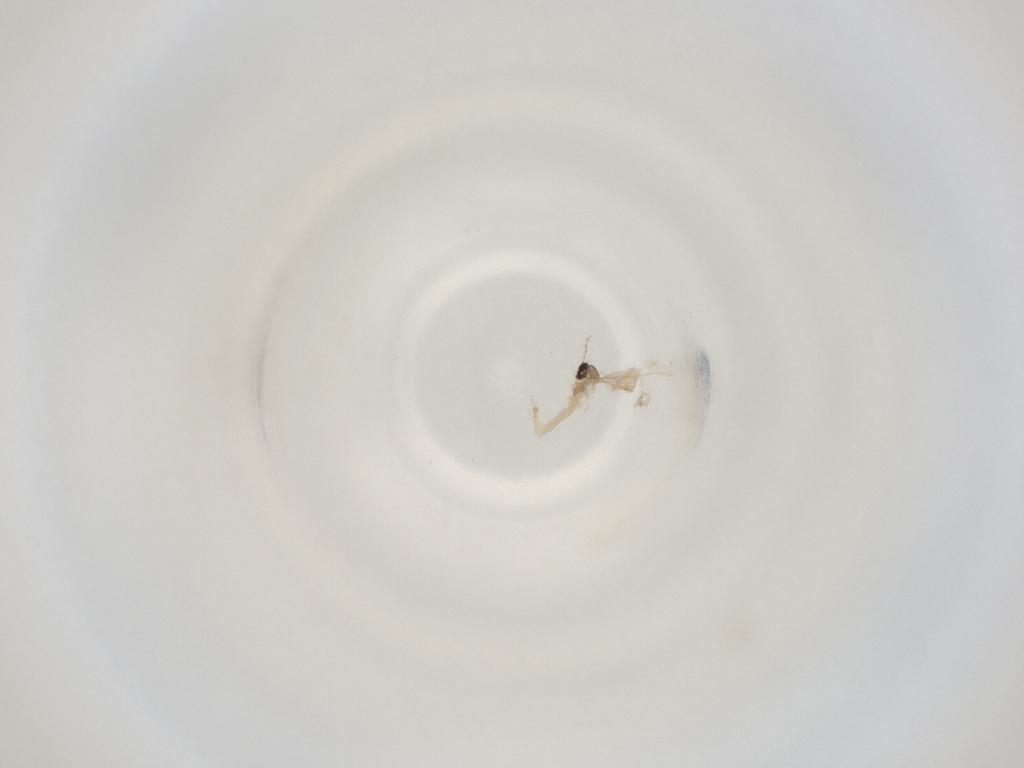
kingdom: Animalia
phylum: Arthropoda
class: Insecta
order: Diptera
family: Cecidomyiidae
